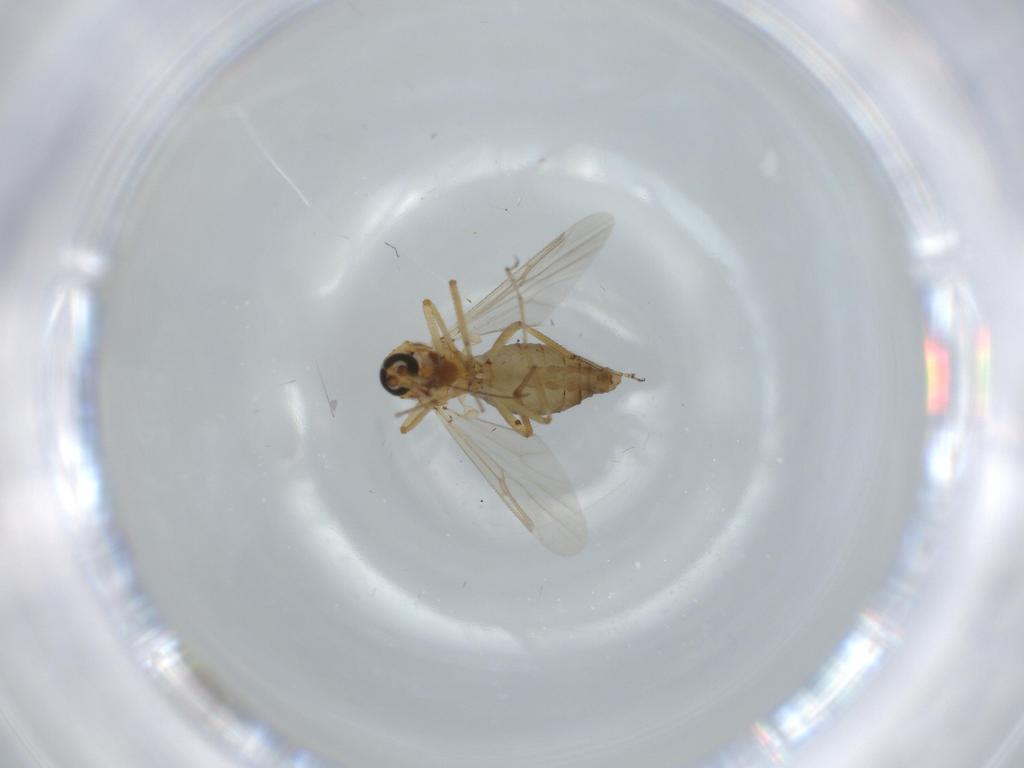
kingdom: Animalia
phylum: Arthropoda
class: Insecta
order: Diptera
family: Ceratopogonidae
